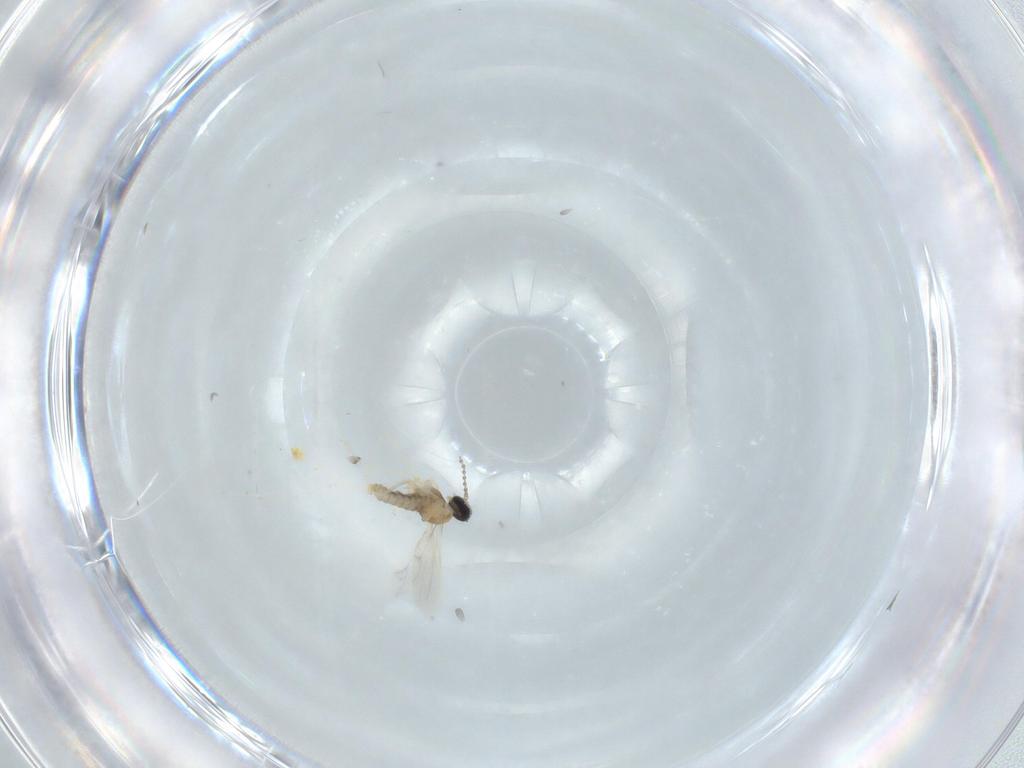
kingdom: Animalia
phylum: Arthropoda
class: Insecta
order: Diptera
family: Cecidomyiidae
